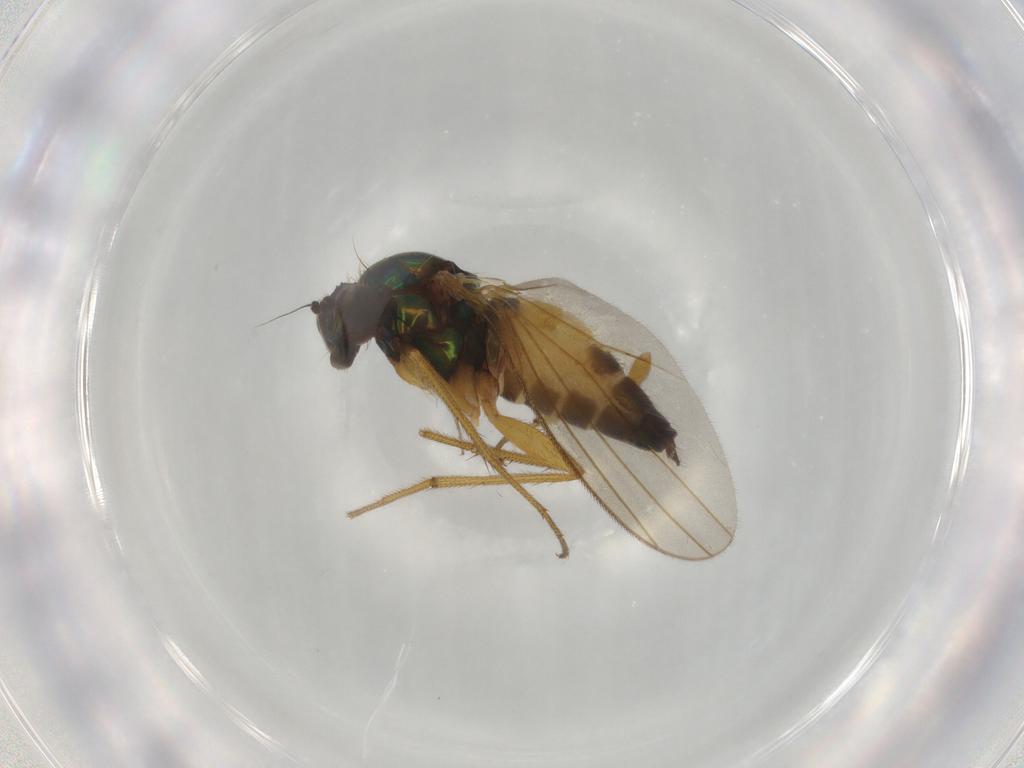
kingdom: Animalia
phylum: Arthropoda
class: Insecta
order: Diptera
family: Dolichopodidae
